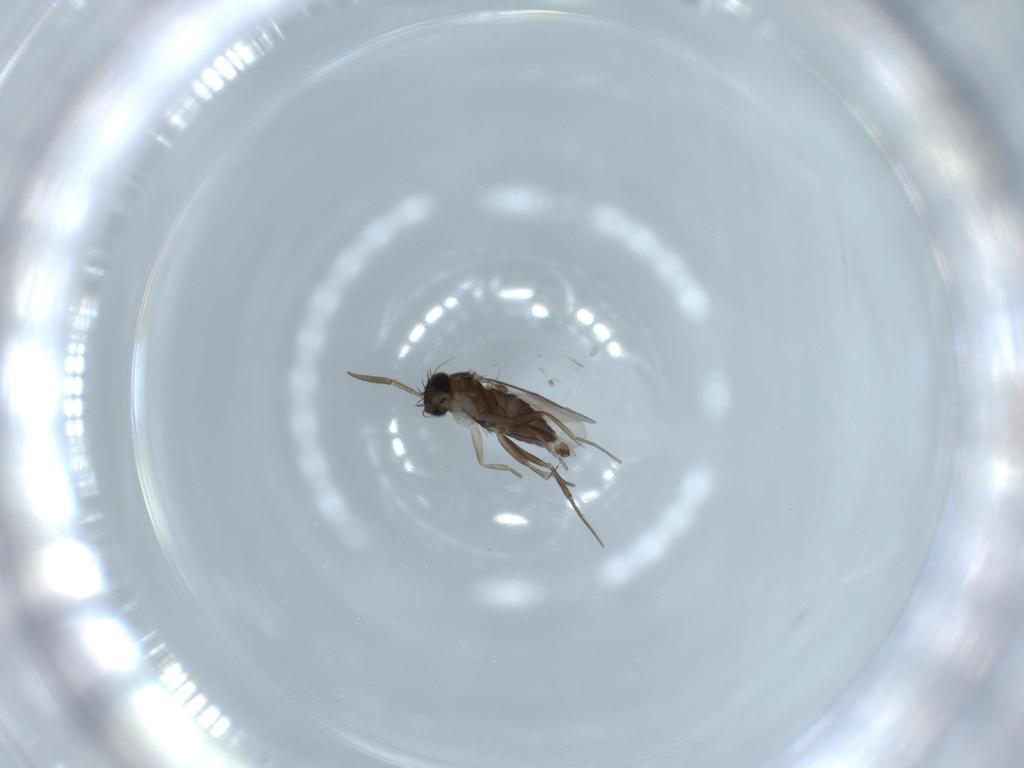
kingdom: Animalia
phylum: Arthropoda
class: Insecta
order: Diptera
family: Phoridae
